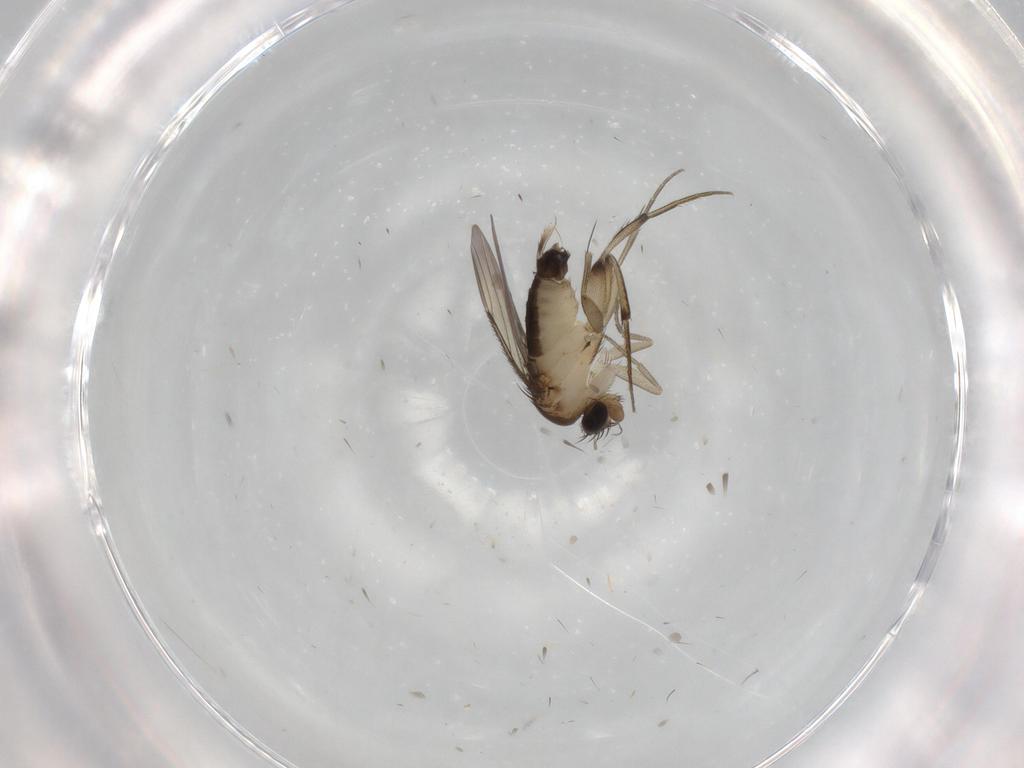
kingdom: Animalia
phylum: Arthropoda
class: Insecta
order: Diptera
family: Phoridae
